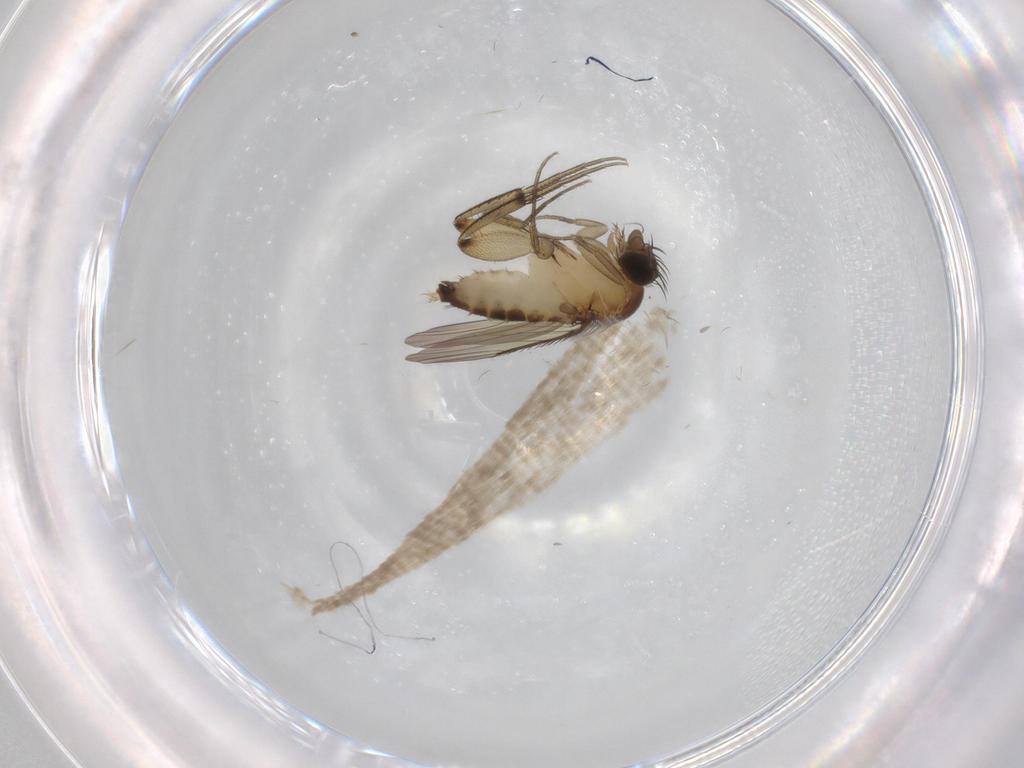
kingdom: Animalia
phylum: Arthropoda
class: Insecta
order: Diptera
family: Phoridae
